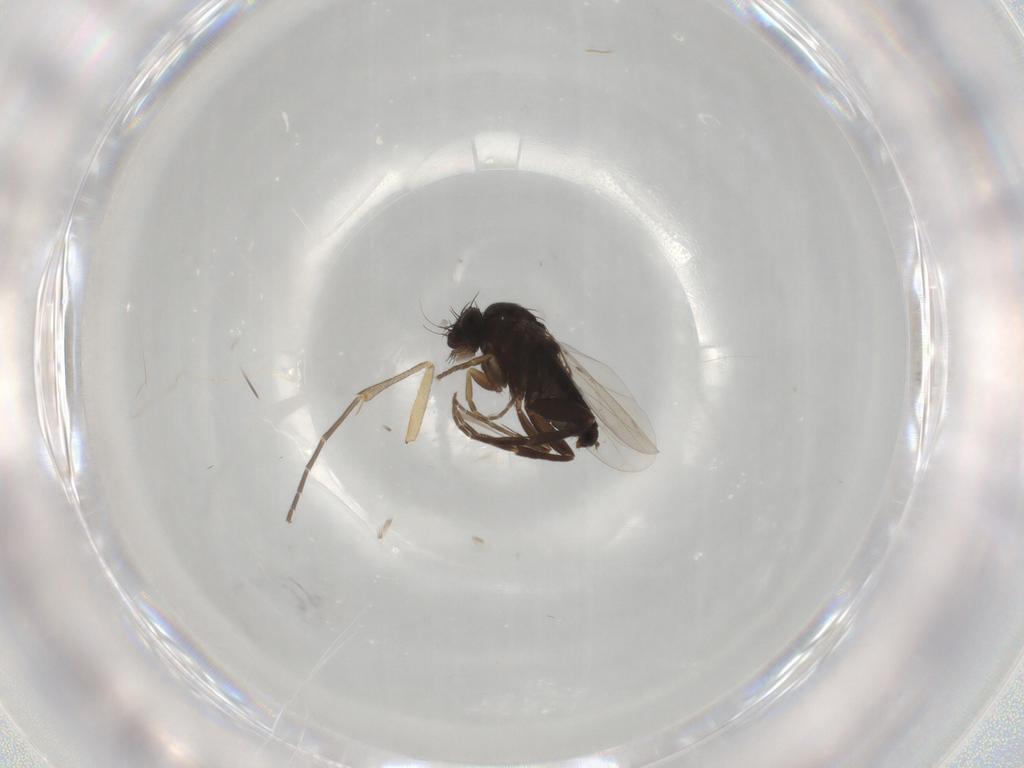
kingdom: Animalia
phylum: Arthropoda
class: Insecta
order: Diptera
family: Phoridae
